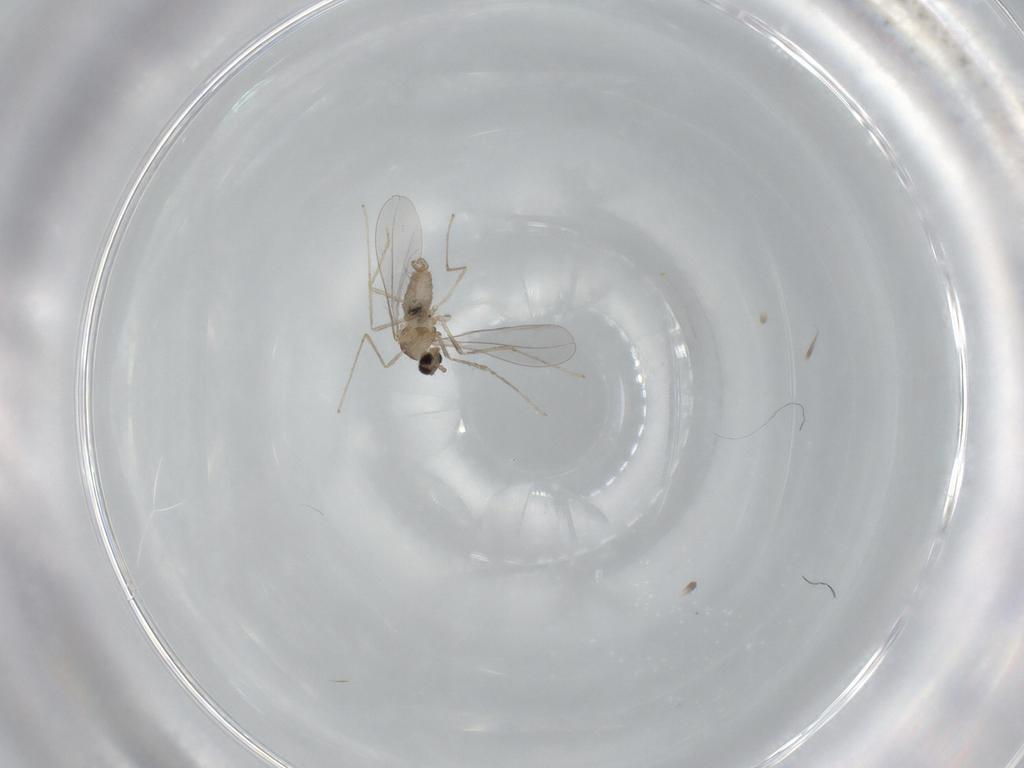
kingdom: Animalia
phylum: Arthropoda
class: Insecta
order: Diptera
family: Cecidomyiidae
